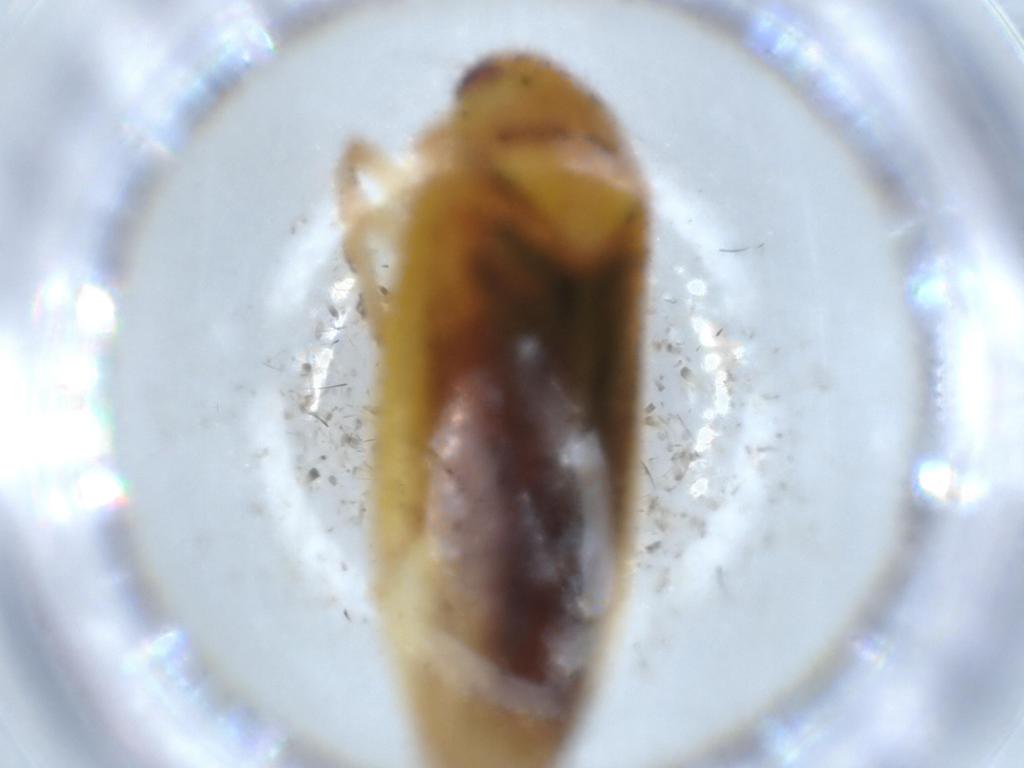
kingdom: Animalia
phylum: Arthropoda
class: Insecta
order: Hemiptera
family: Cicadellidae
